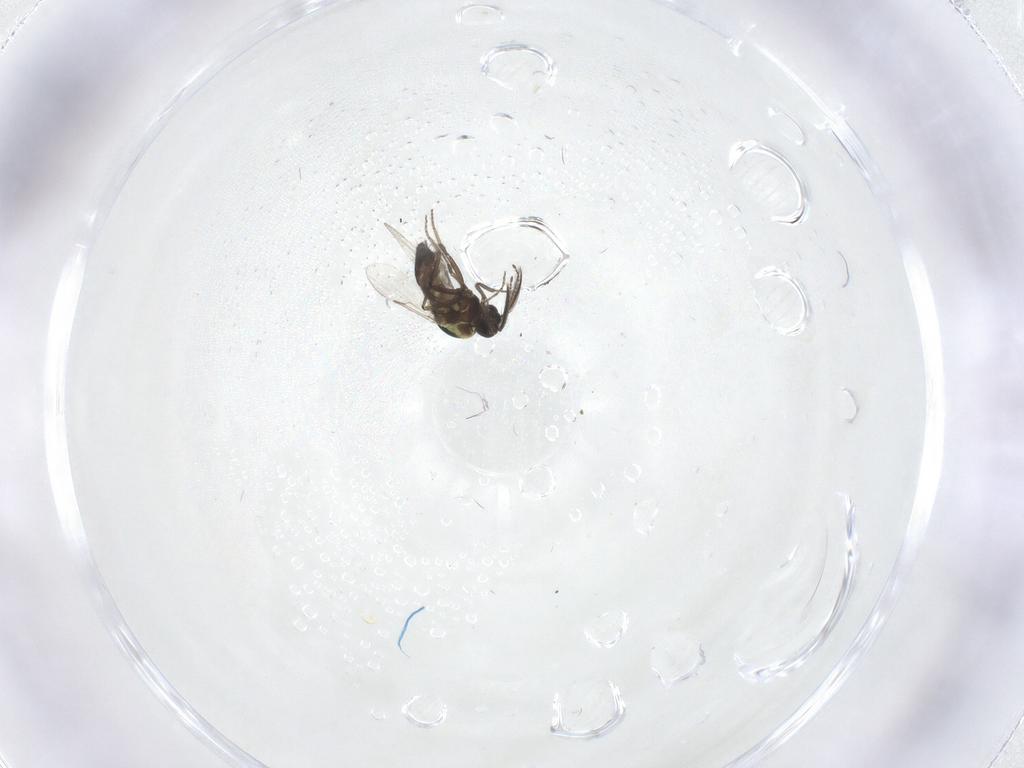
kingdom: Animalia
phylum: Arthropoda
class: Insecta
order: Diptera
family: Ceratopogonidae
